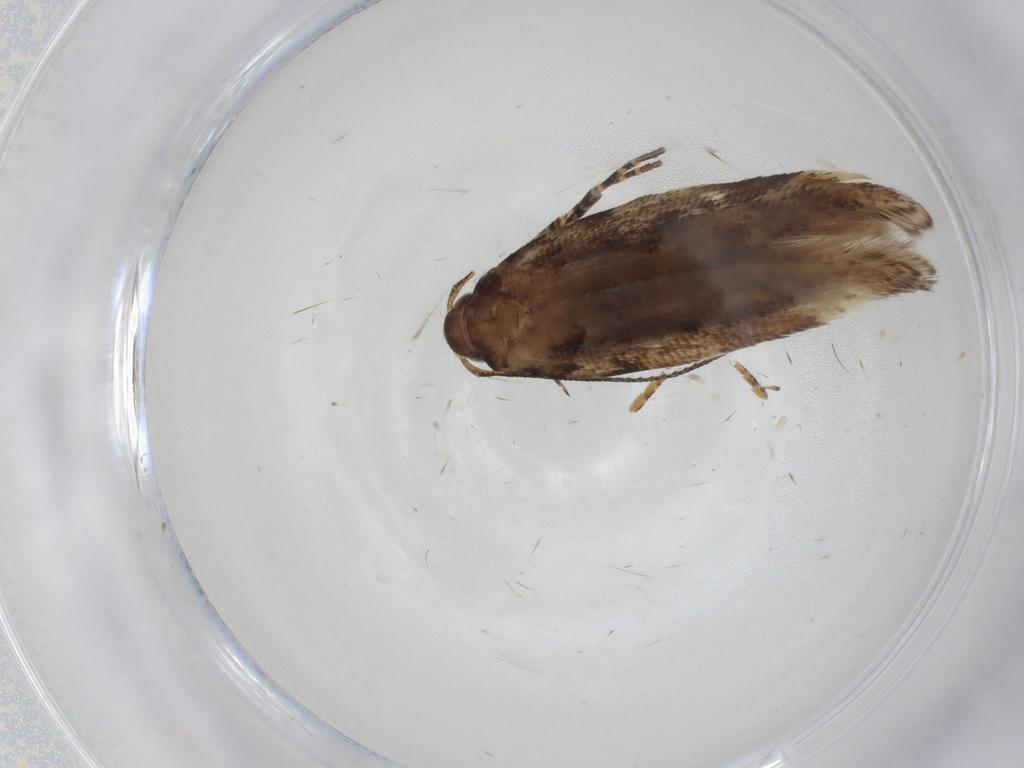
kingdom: Animalia
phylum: Arthropoda
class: Insecta
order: Lepidoptera
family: Gelechiidae
